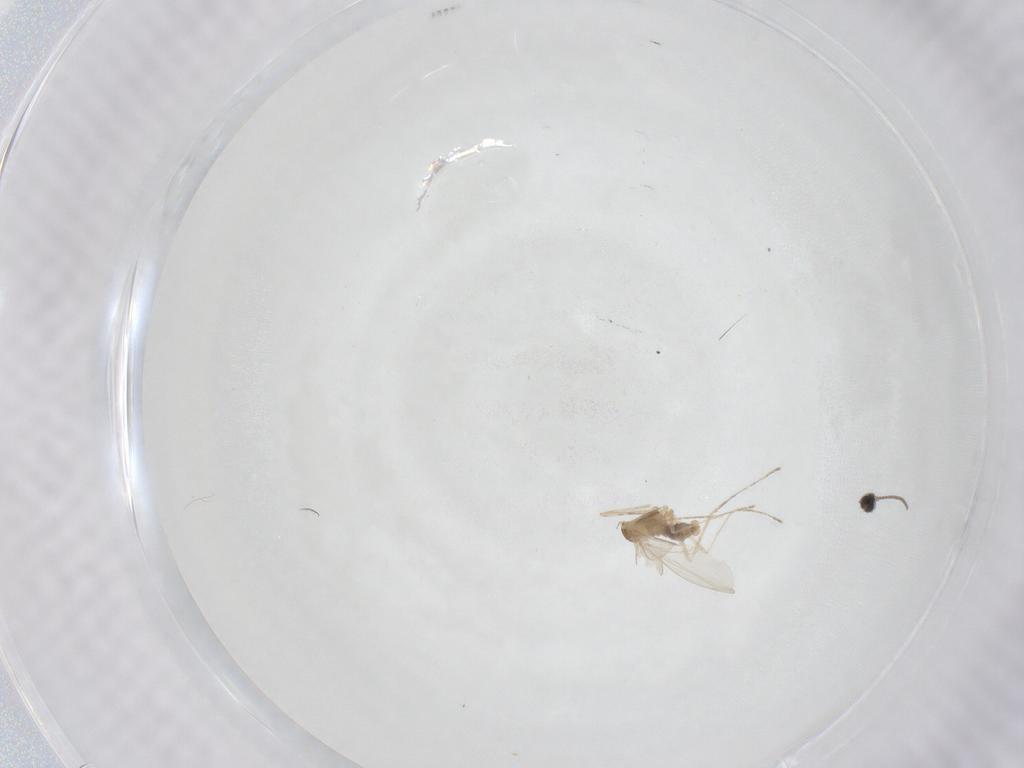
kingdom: Animalia
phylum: Arthropoda
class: Insecta
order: Diptera
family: Cecidomyiidae
